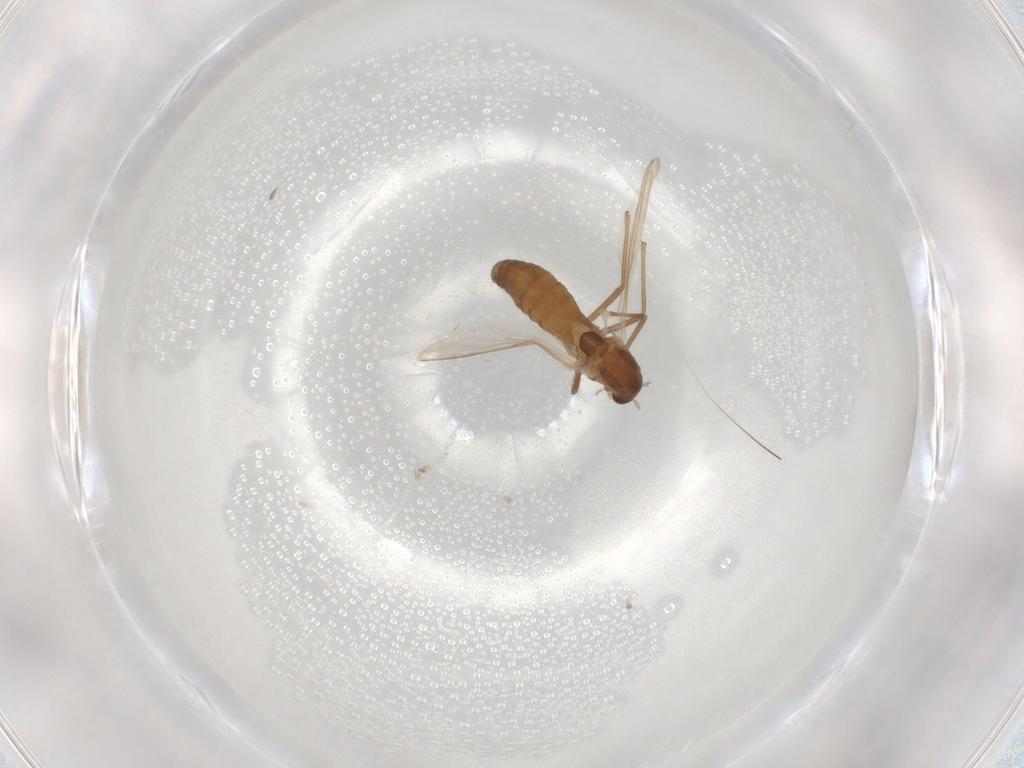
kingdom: Animalia
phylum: Arthropoda
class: Insecta
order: Diptera
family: Chironomidae
